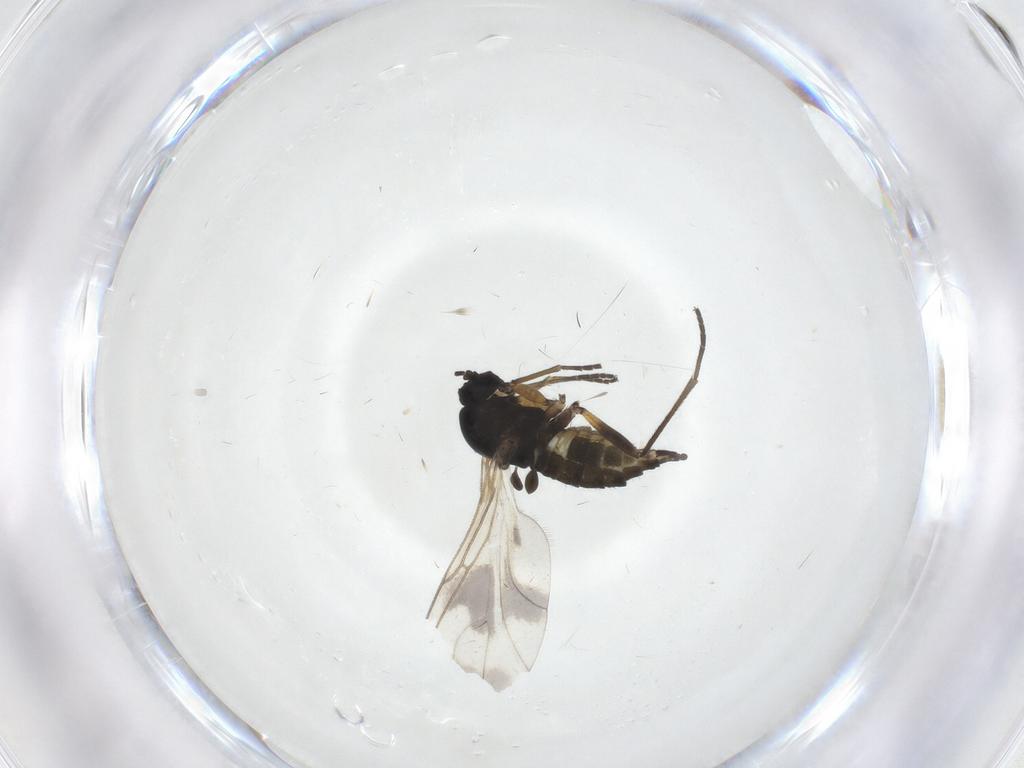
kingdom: Animalia
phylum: Arthropoda
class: Insecta
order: Diptera
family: Sciaridae
